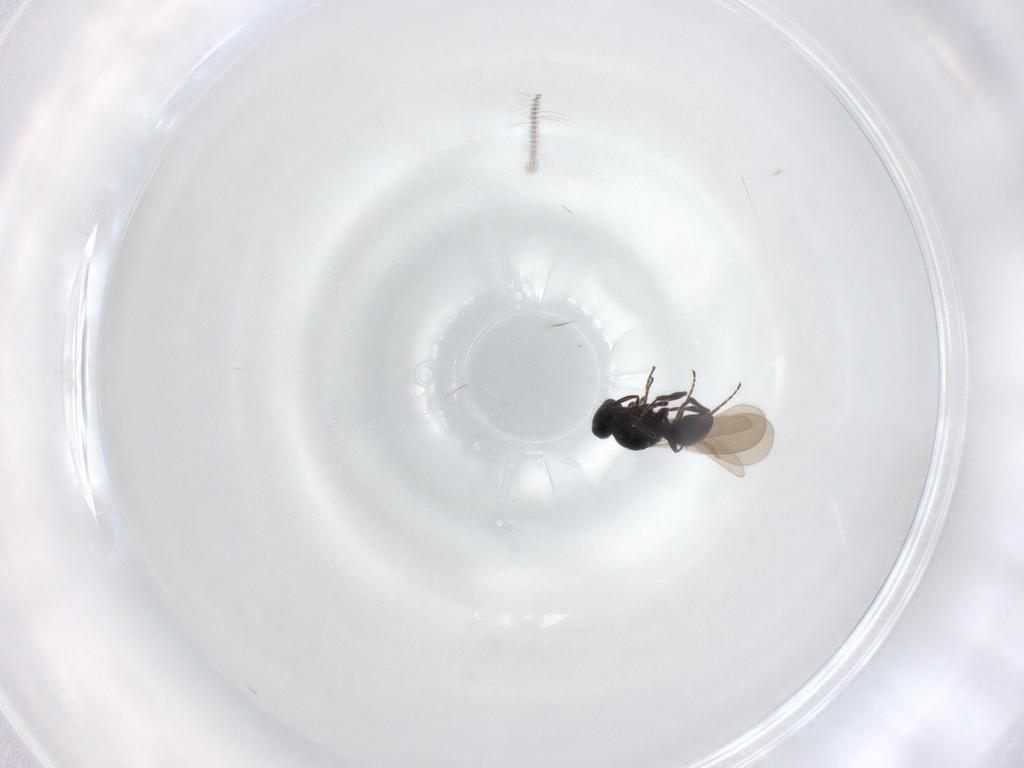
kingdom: Animalia
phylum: Arthropoda
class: Insecta
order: Hymenoptera
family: Platygastridae
